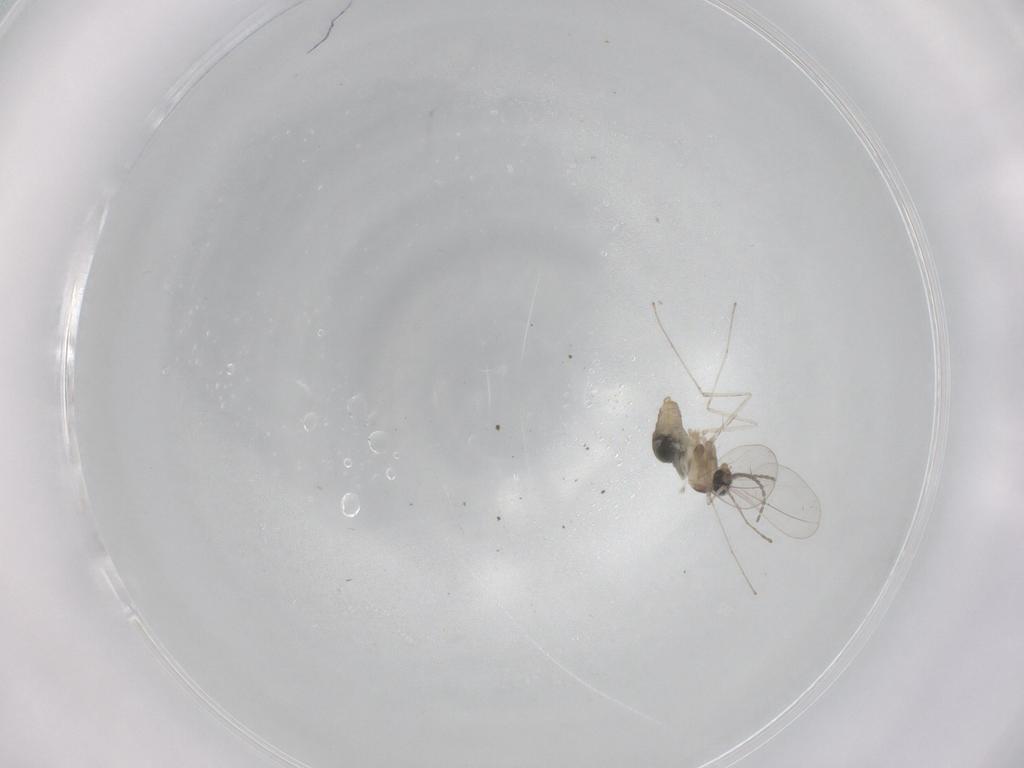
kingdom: Animalia
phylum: Arthropoda
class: Insecta
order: Diptera
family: Cecidomyiidae
